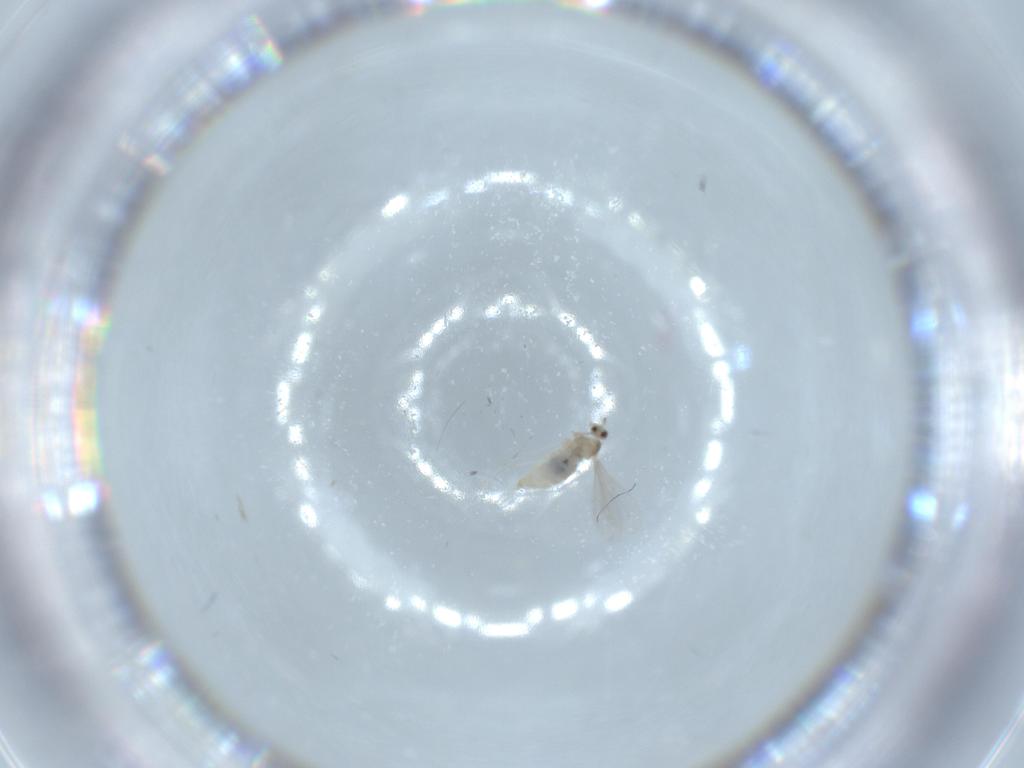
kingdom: Animalia
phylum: Arthropoda
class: Insecta
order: Diptera
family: Cecidomyiidae
